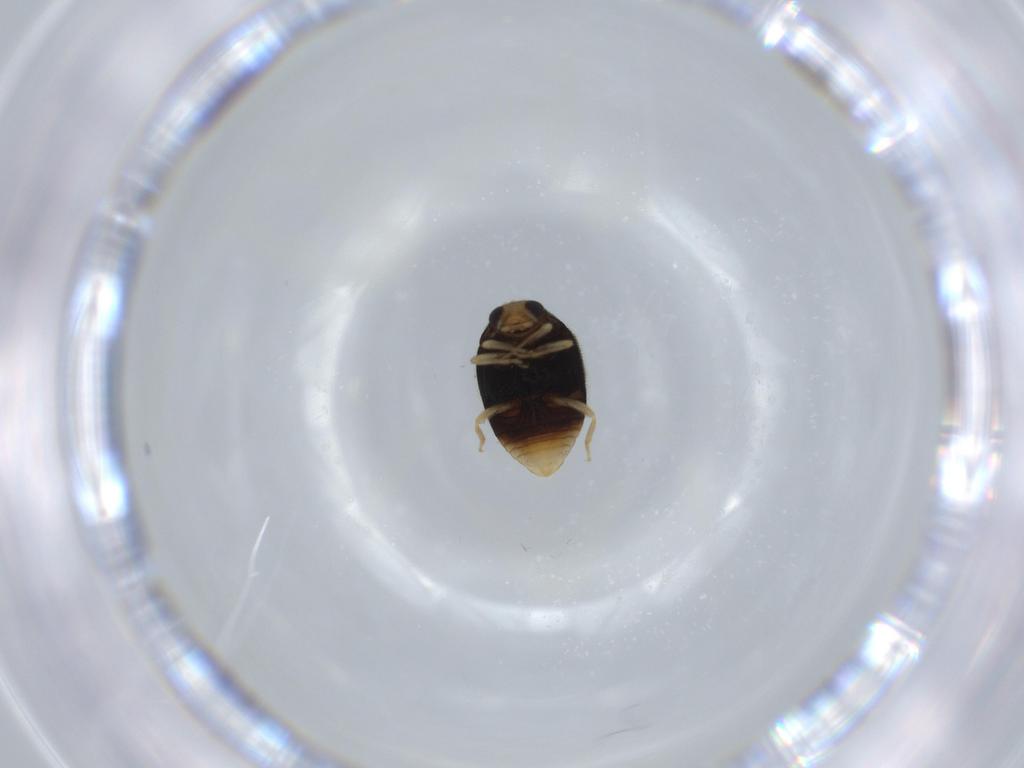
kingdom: Animalia
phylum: Arthropoda
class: Insecta
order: Coleoptera
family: Coccinellidae
